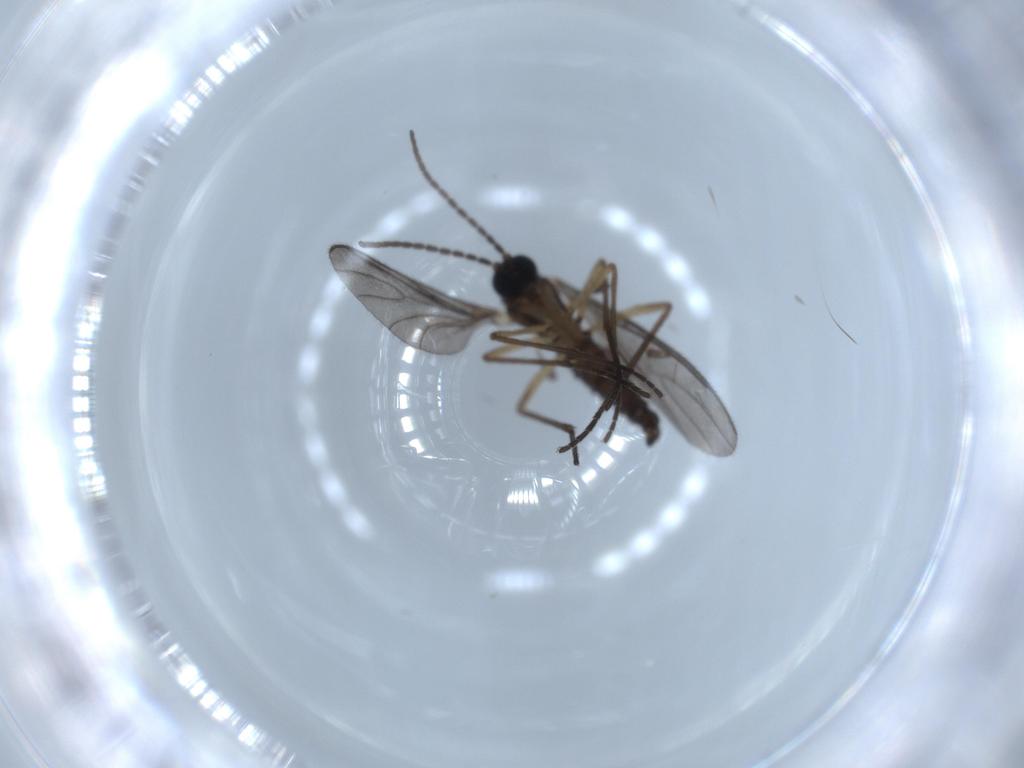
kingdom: Animalia
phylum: Arthropoda
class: Insecta
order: Diptera
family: Sciaridae
